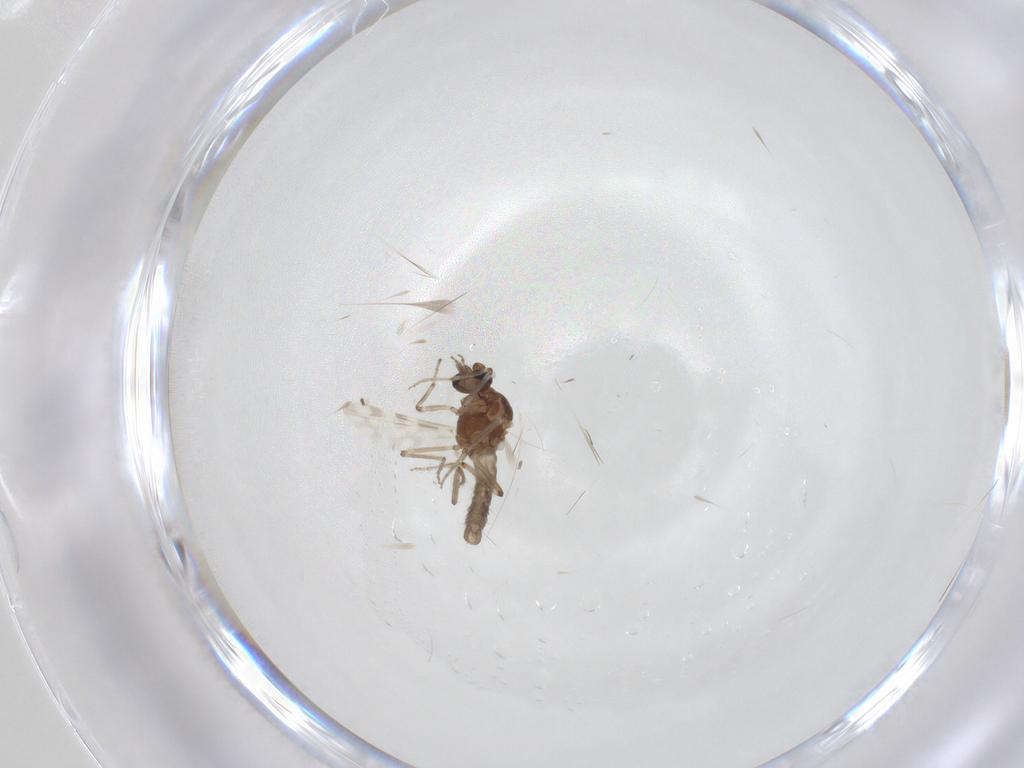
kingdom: Animalia
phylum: Arthropoda
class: Insecta
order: Diptera
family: Ceratopogonidae
